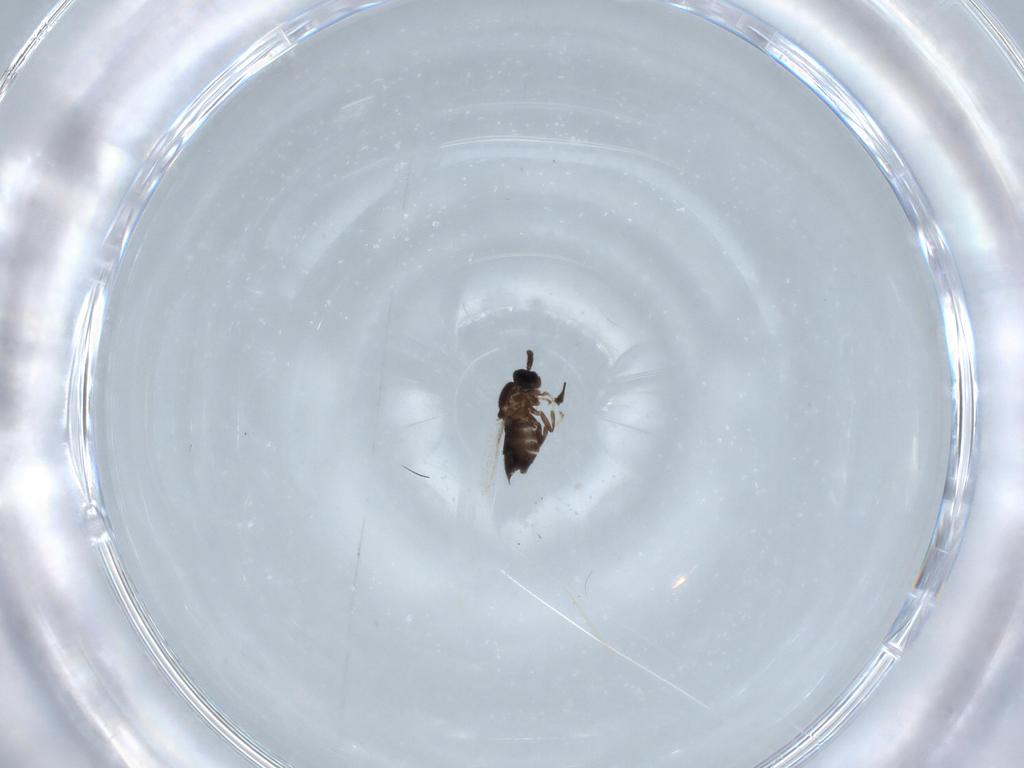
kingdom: Animalia
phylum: Arthropoda
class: Insecta
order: Diptera
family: Scatopsidae
